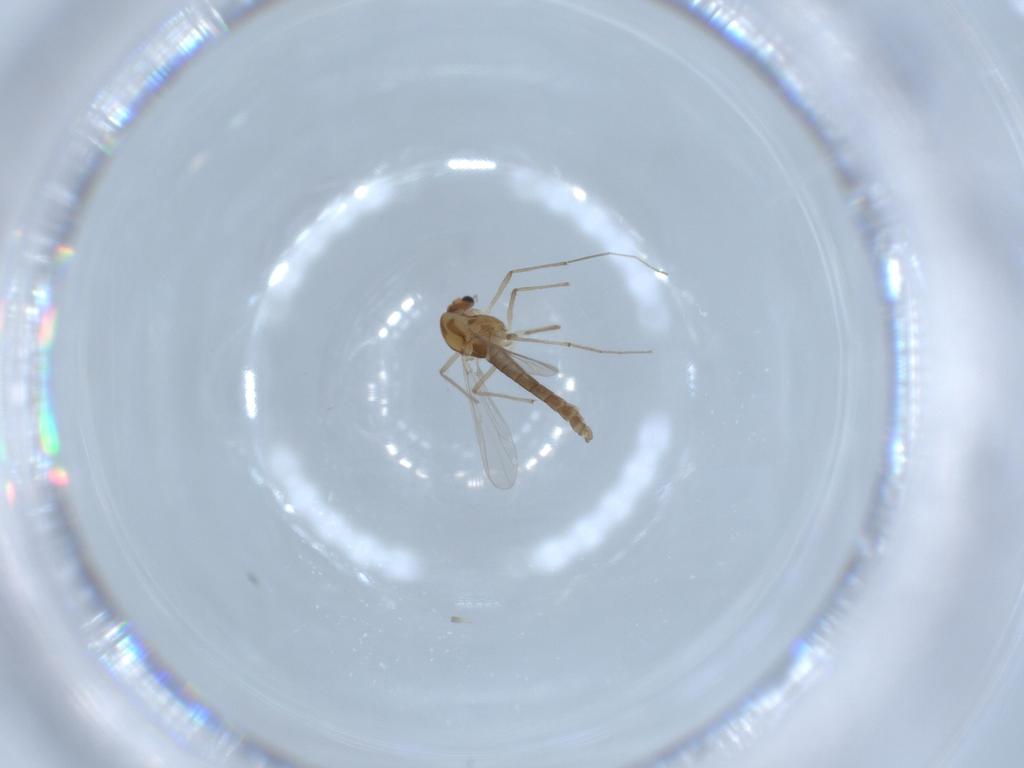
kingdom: Animalia
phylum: Arthropoda
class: Insecta
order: Diptera
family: Chironomidae
